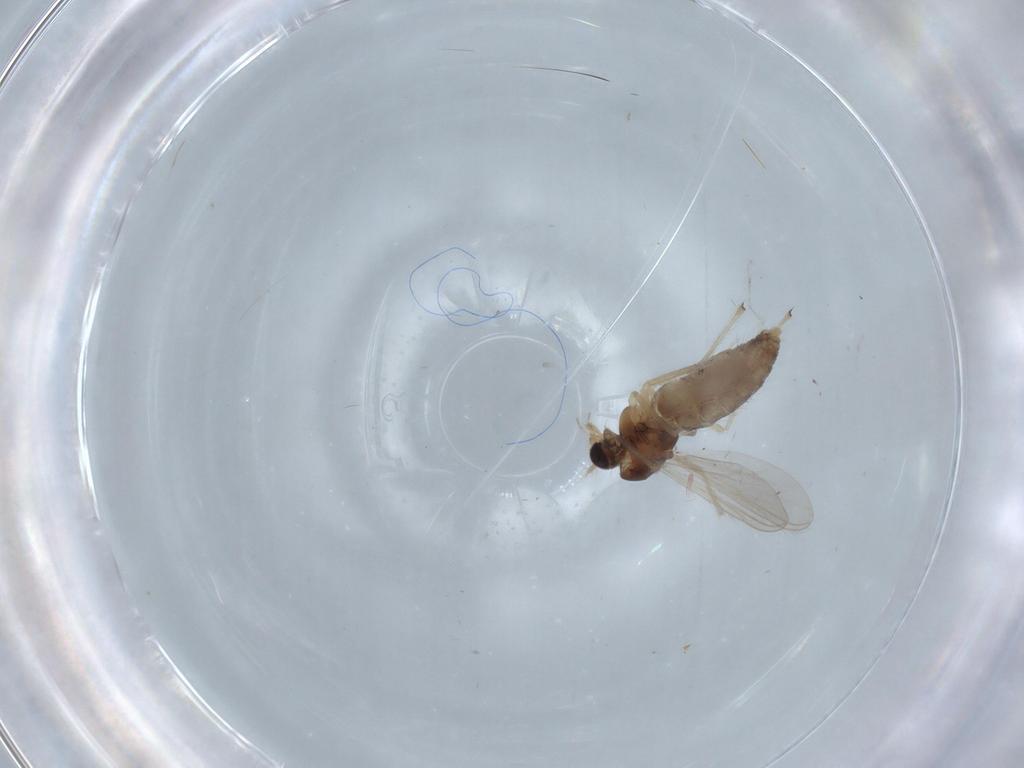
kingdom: Animalia
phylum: Arthropoda
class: Insecta
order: Diptera
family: Chironomidae
